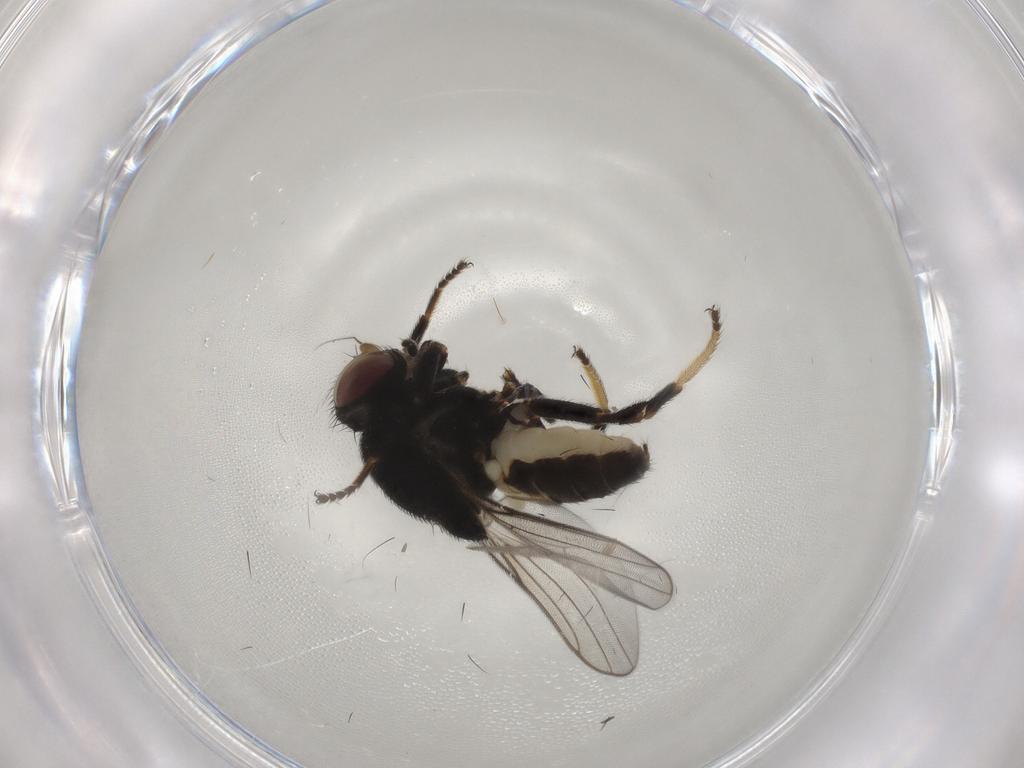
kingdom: Animalia
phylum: Arthropoda
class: Insecta
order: Diptera
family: Chloropidae
